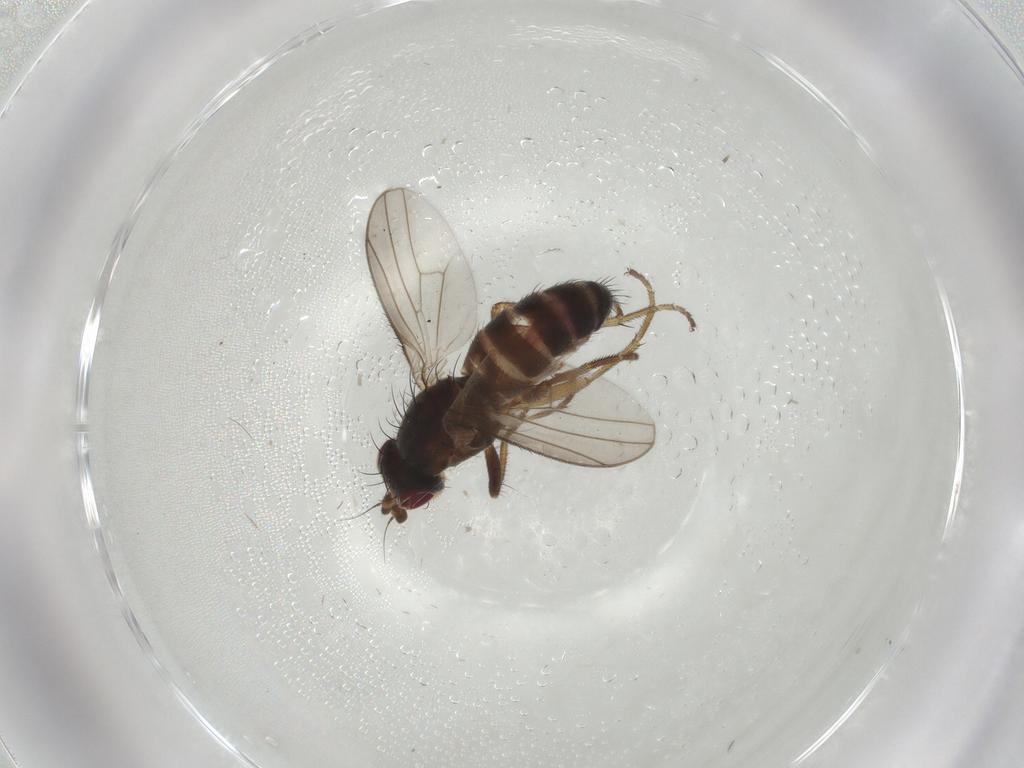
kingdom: Animalia
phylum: Arthropoda
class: Insecta
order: Diptera
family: Heleomyzidae
